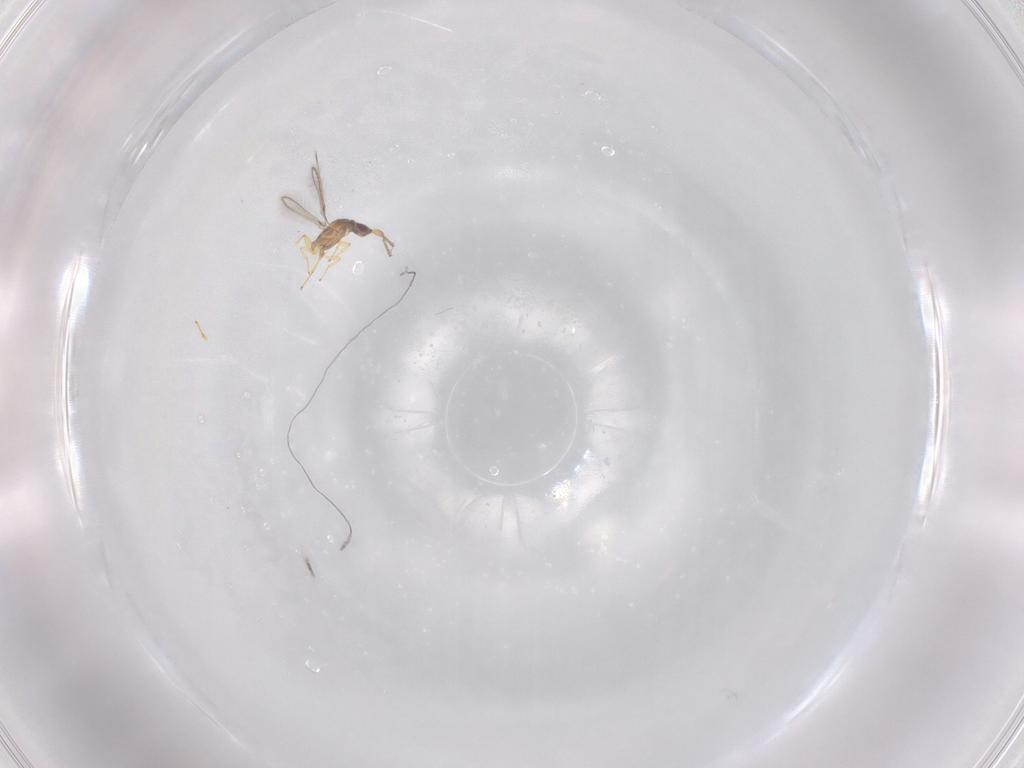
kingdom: Animalia
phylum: Arthropoda
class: Insecta
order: Hymenoptera
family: Mymaridae
